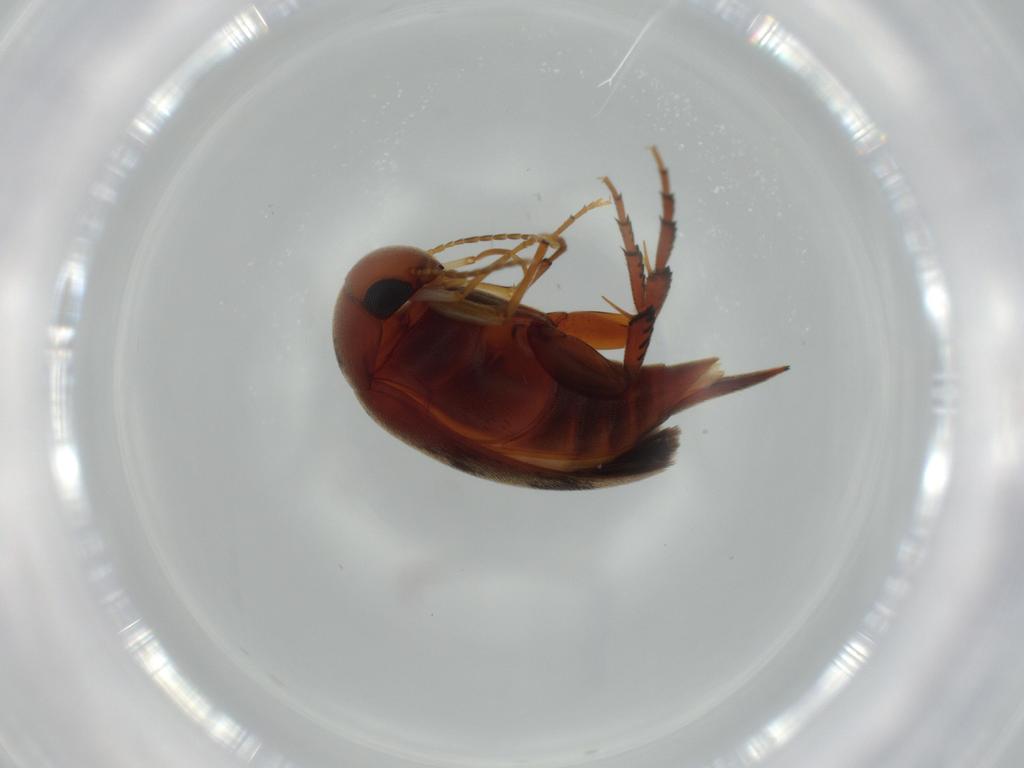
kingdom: Animalia
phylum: Arthropoda
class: Insecta
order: Coleoptera
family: Mordellidae
